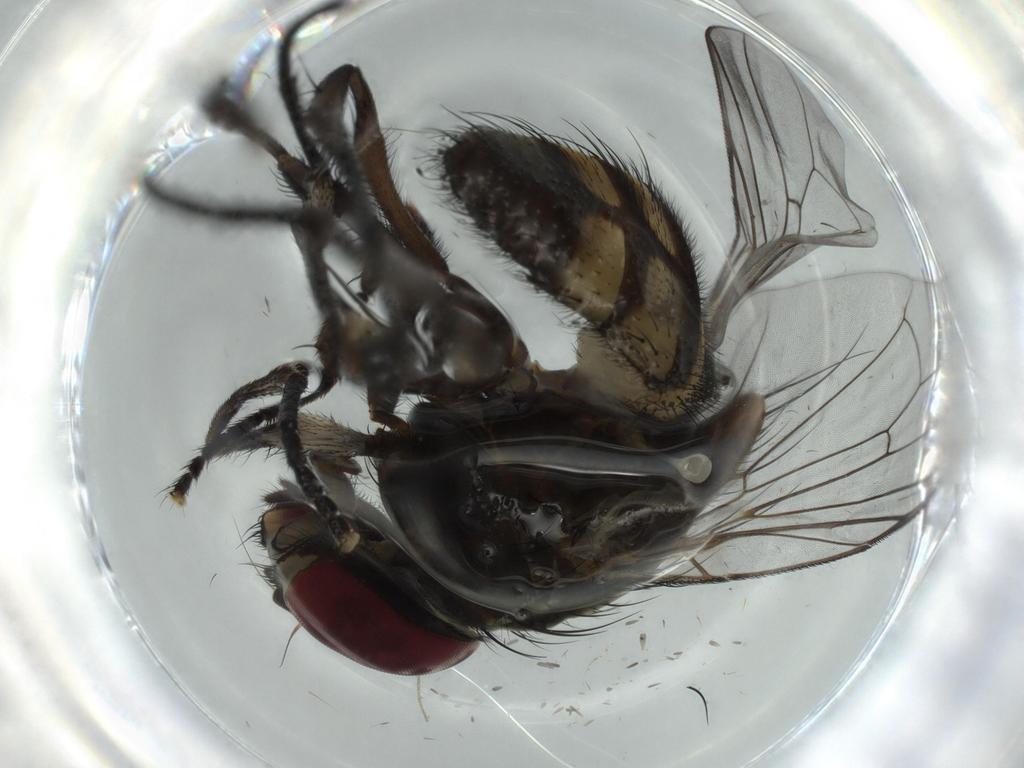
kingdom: Animalia
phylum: Arthropoda
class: Insecta
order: Diptera
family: Fannia
